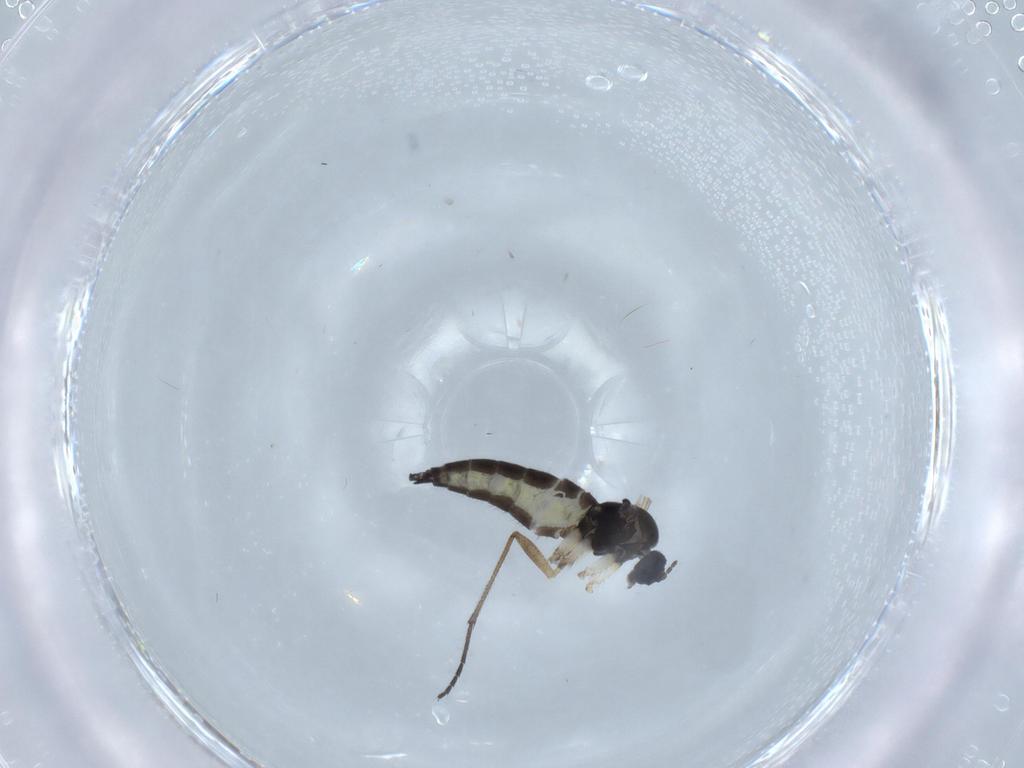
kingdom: Animalia
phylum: Arthropoda
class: Insecta
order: Diptera
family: Sciaridae
